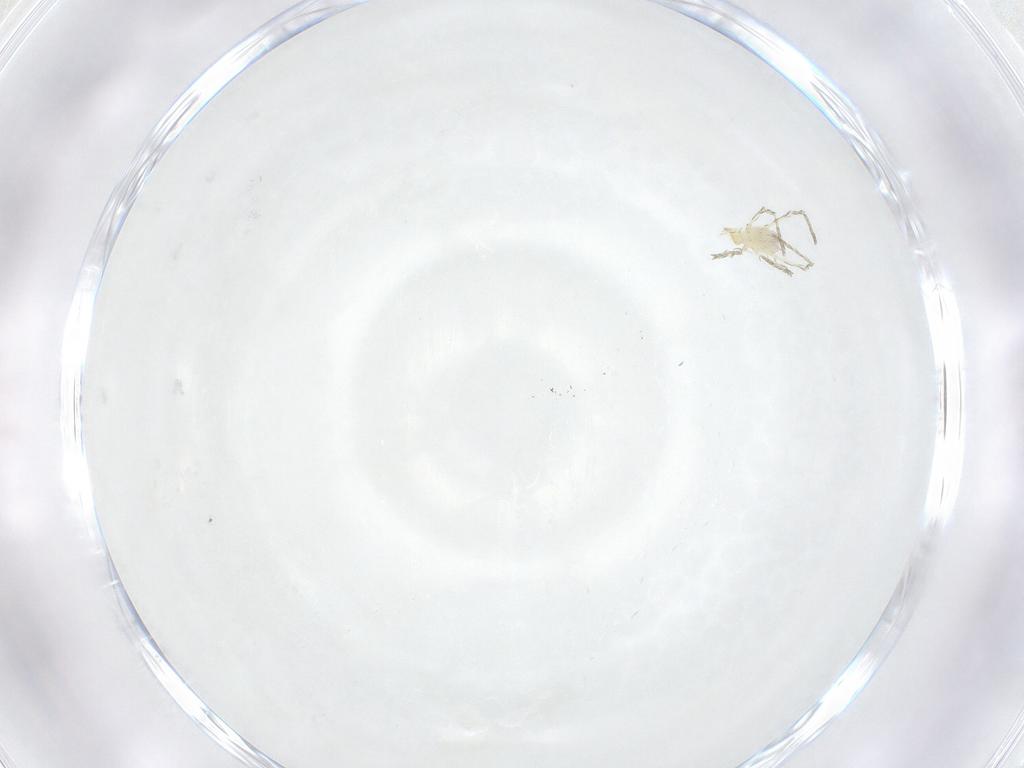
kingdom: Animalia
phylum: Arthropoda
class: Arachnida
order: Trombidiformes
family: Erythraeidae
